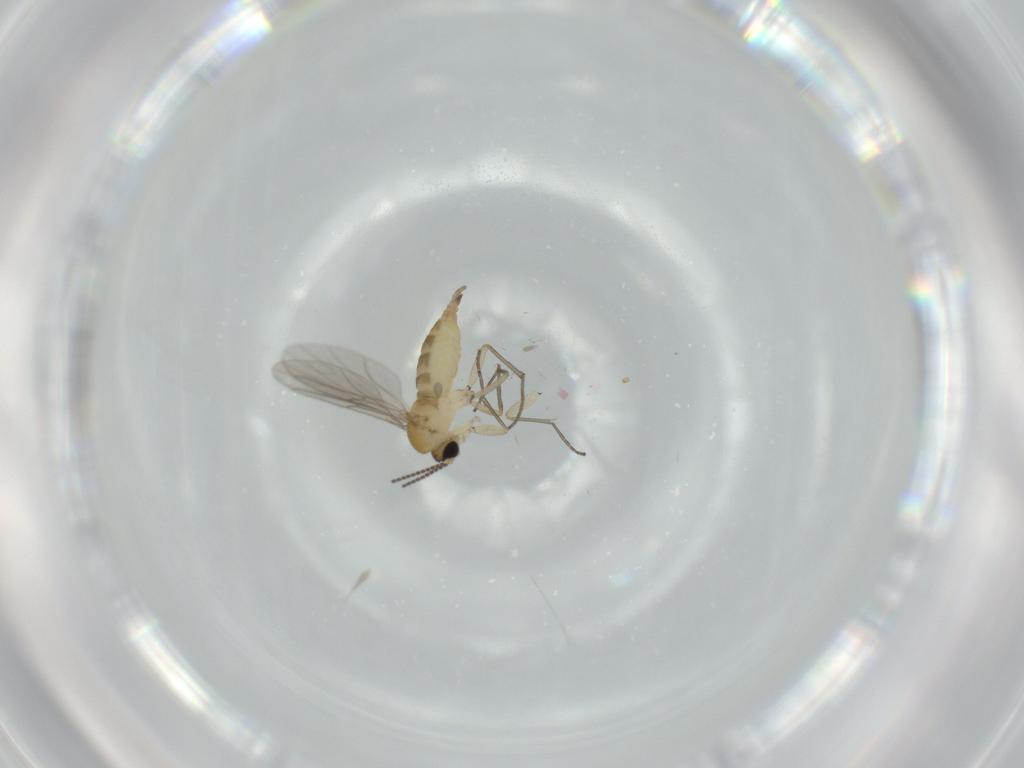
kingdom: Animalia
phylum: Arthropoda
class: Insecta
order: Diptera
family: Sciaridae
